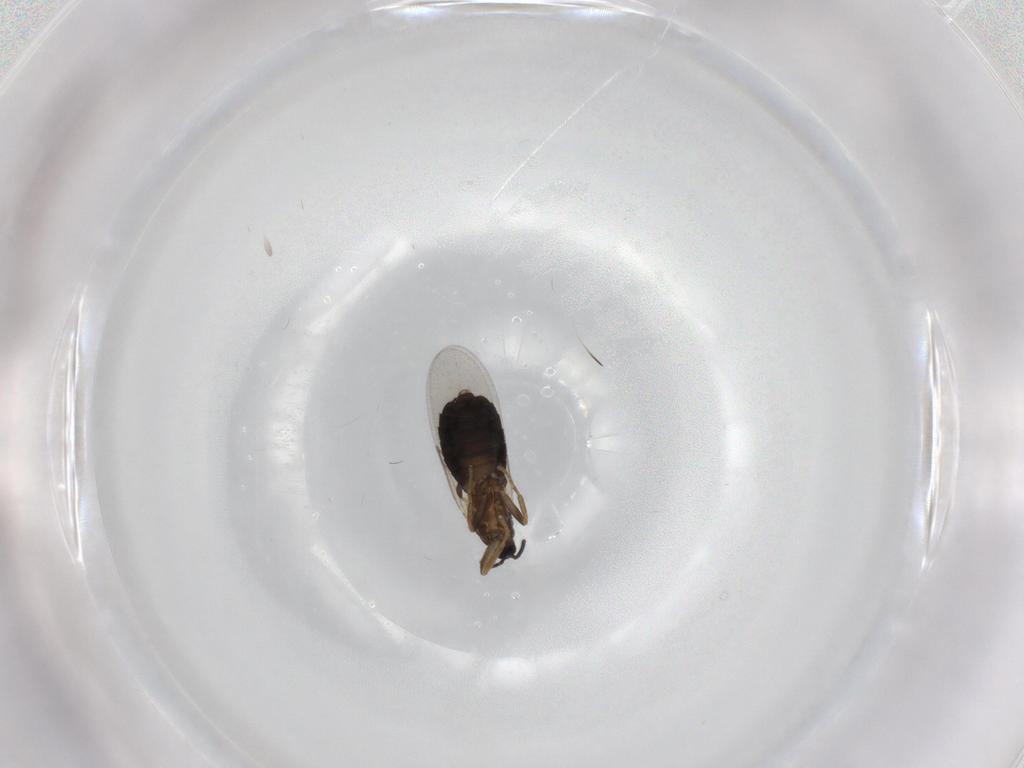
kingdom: Animalia
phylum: Arthropoda
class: Insecta
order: Diptera
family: Scatopsidae
